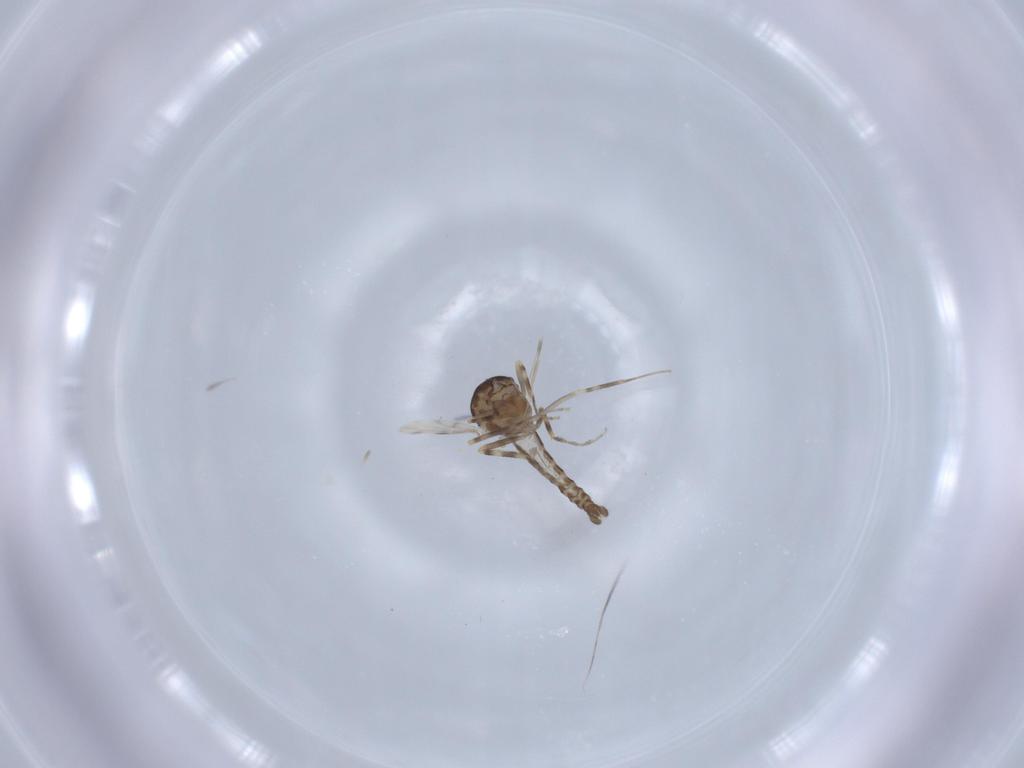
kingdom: Animalia
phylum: Arthropoda
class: Insecta
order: Diptera
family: Ceratopogonidae
